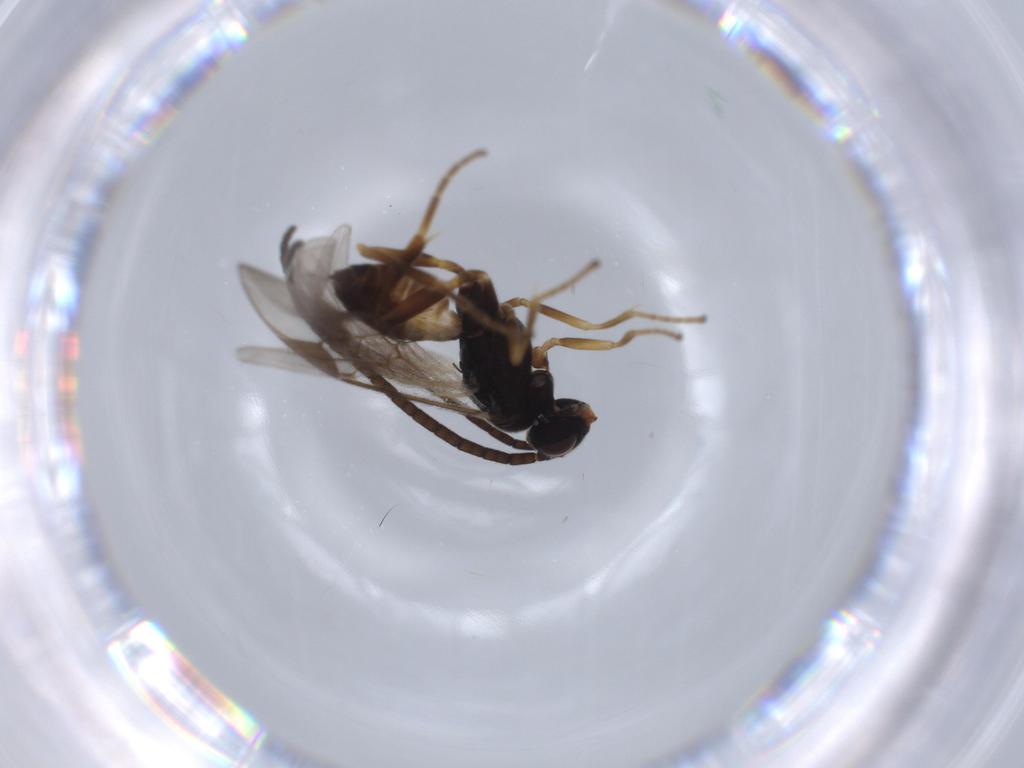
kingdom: Animalia
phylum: Arthropoda
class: Insecta
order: Hymenoptera
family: Braconidae
